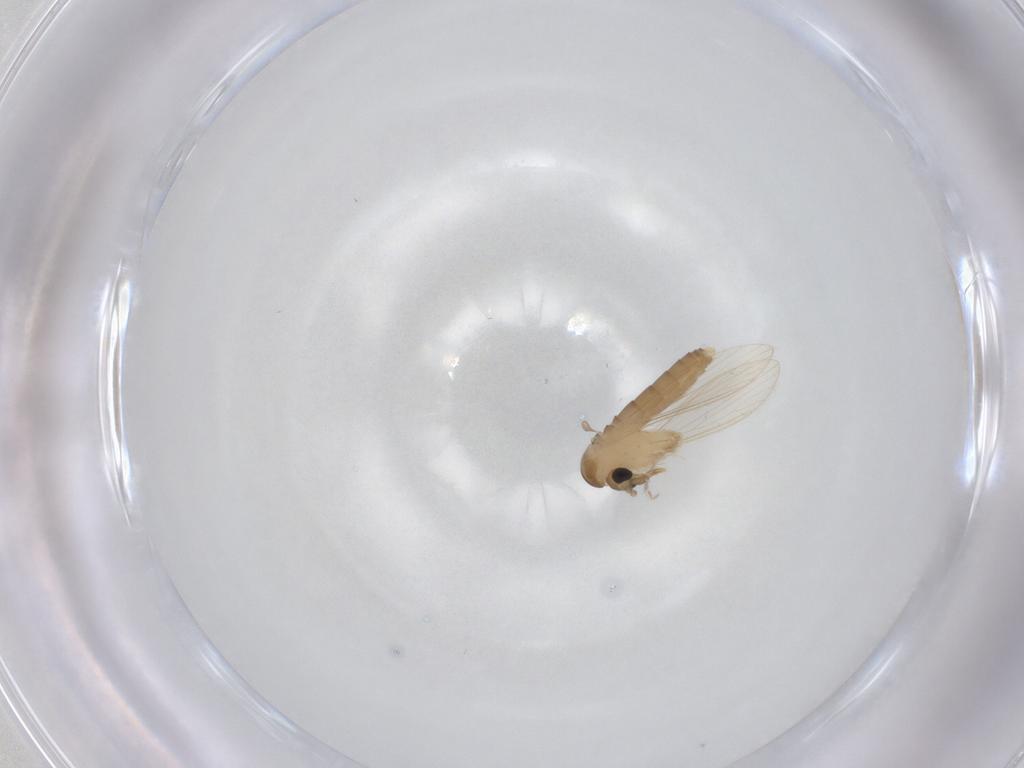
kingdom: Animalia
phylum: Arthropoda
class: Insecta
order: Diptera
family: Psychodidae
